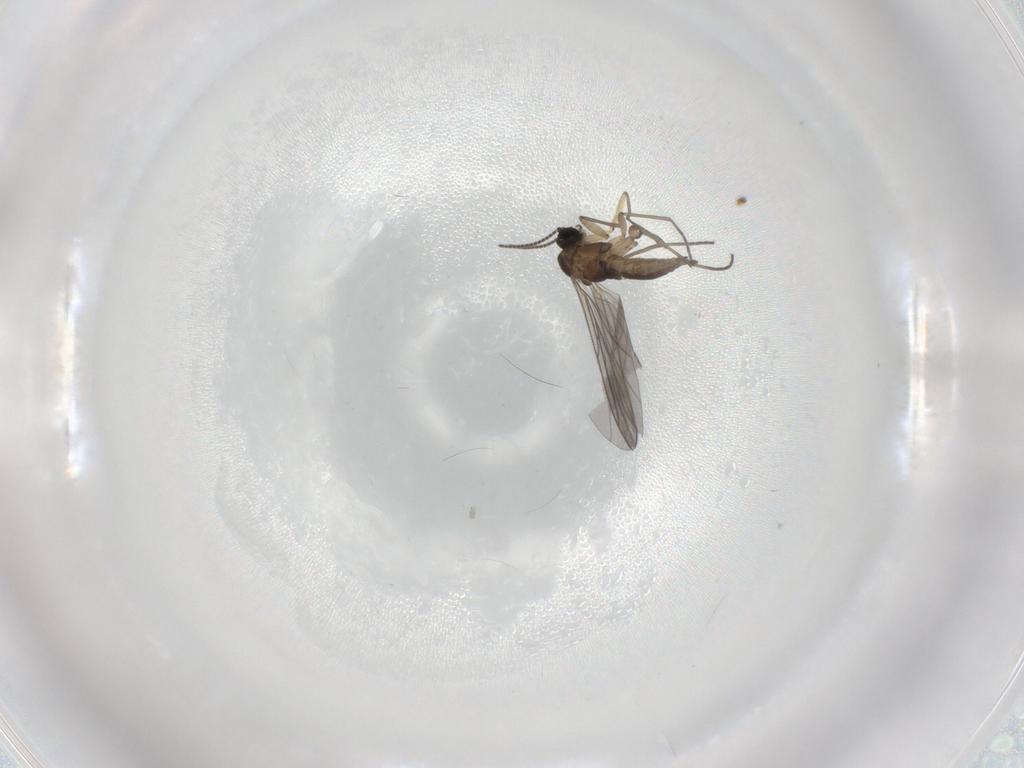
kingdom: Animalia
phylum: Arthropoda
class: Insecta
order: Diptera
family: Sciaridae
